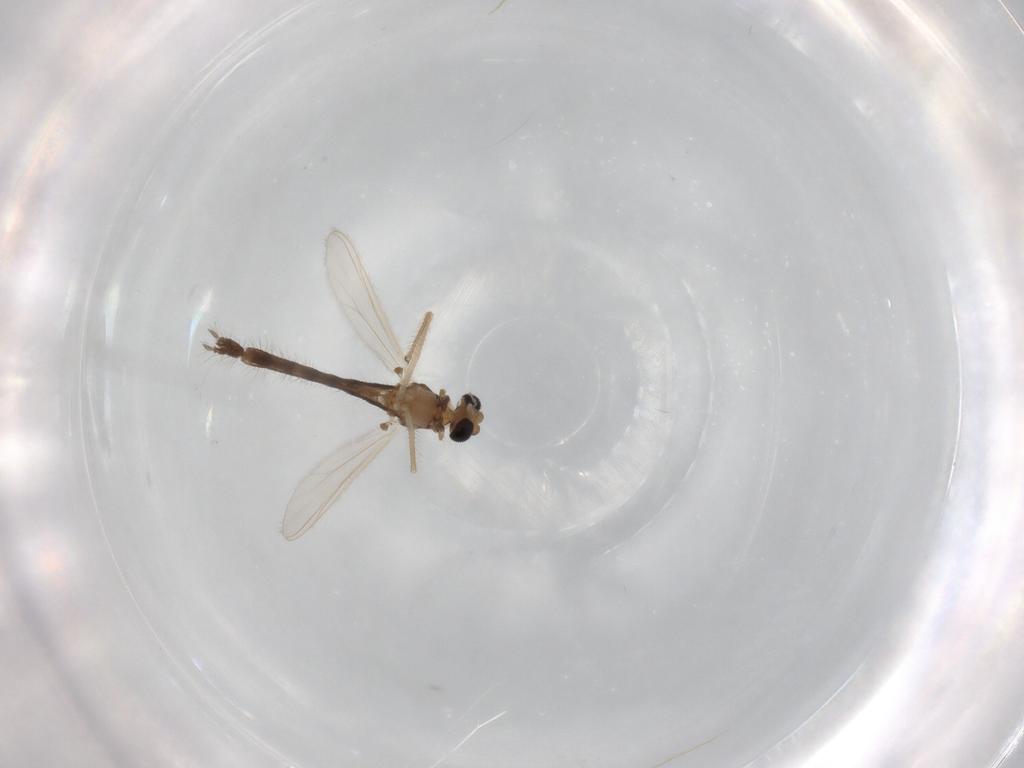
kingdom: Animalia
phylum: Arthropoda
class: Insecta
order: Diptera
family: Chironomidae
